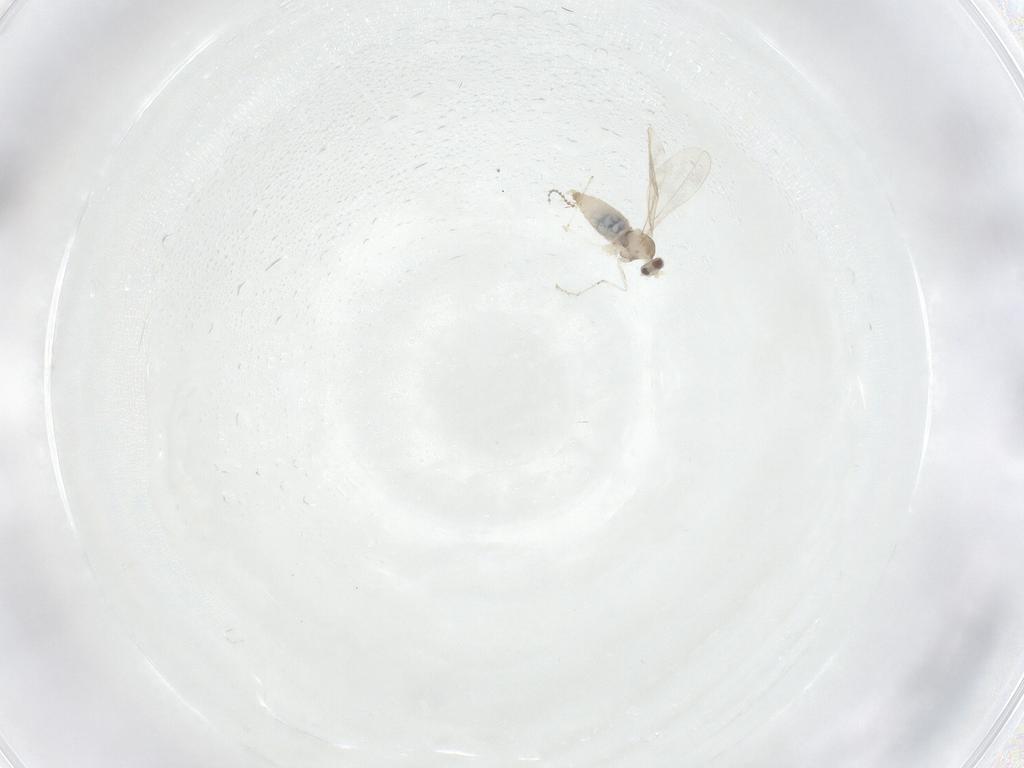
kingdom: Animalia
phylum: Arthropoda
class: Insecta
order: Diptera
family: Cecidomyiidae
